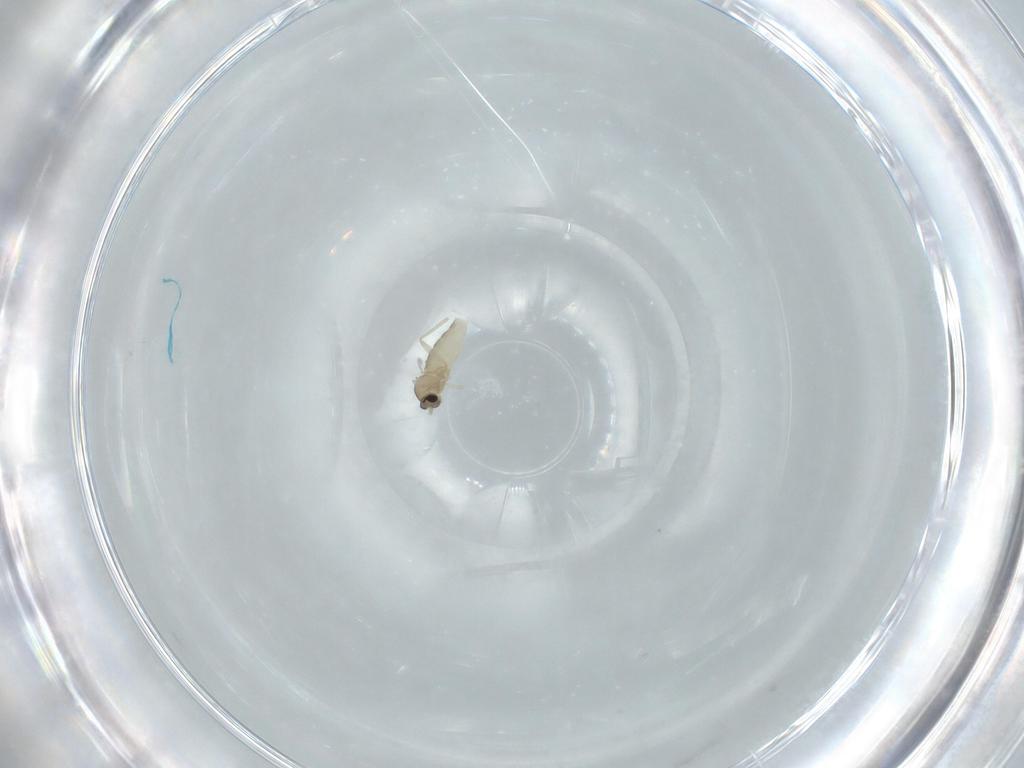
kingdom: Animalia
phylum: Arthropoda
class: Insecta
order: Diptera
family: Cecidomyiidae
